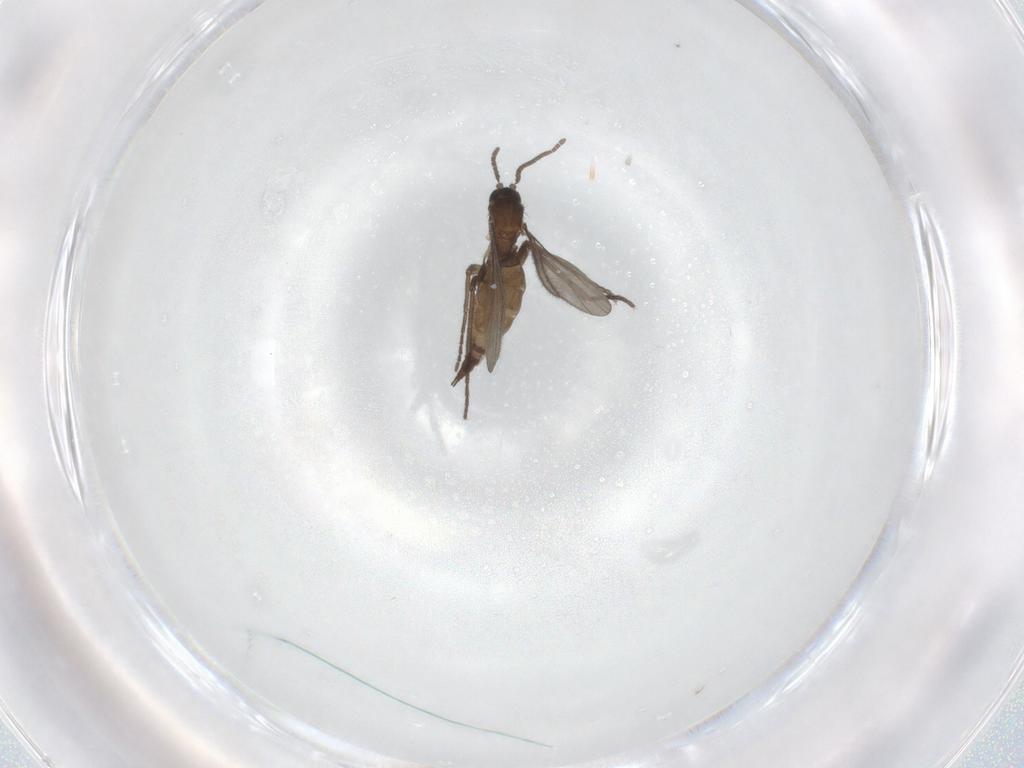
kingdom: Animalia
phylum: Arthropoda
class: Insecta
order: Diptera
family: Sciaridae
